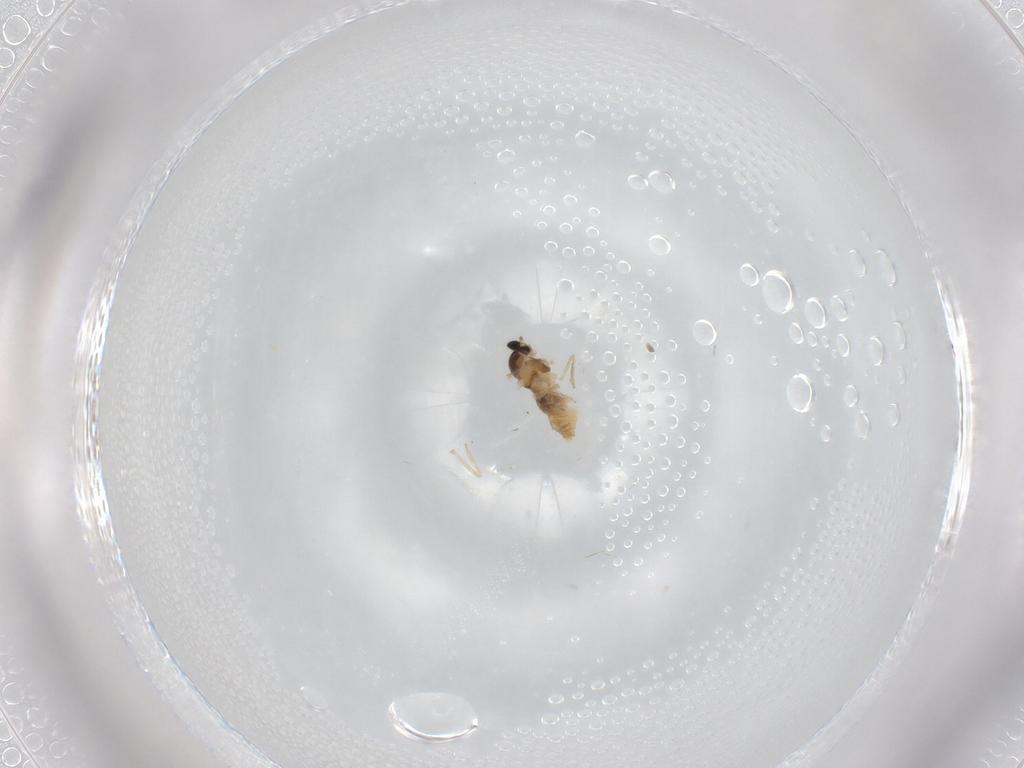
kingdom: Animalia
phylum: Arthropoda
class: Insecta
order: Diptera
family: Cecidomyiidae
